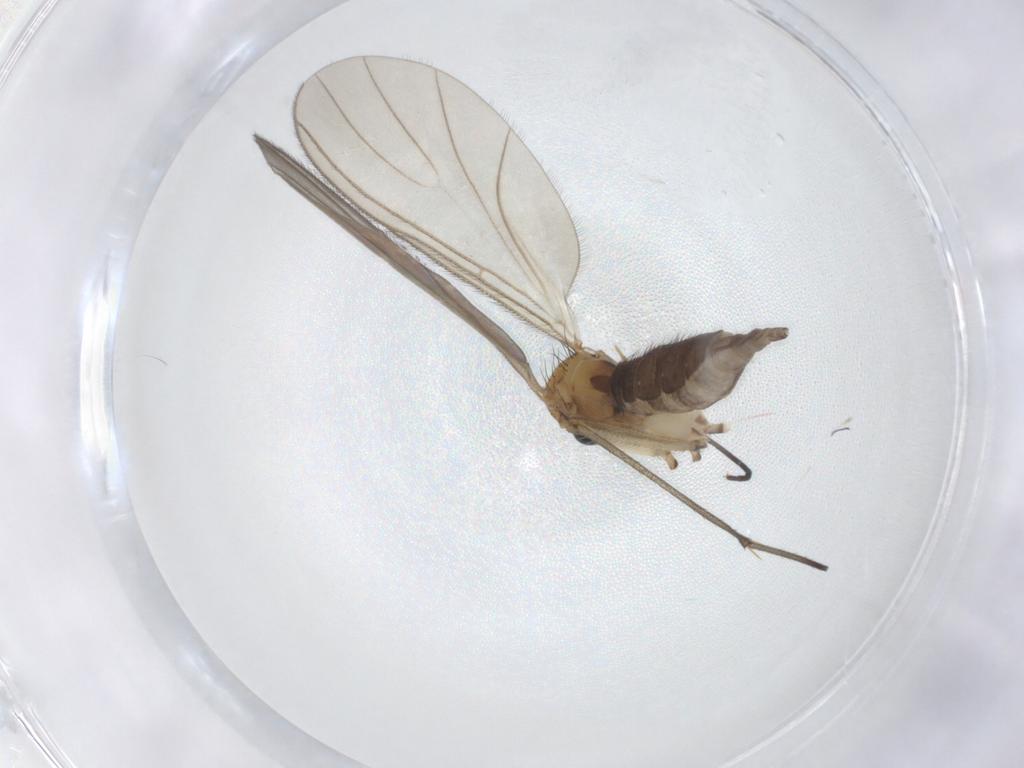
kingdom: Animalia
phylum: Arthropoda
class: Insecta
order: Diptera
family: Sciaridae
